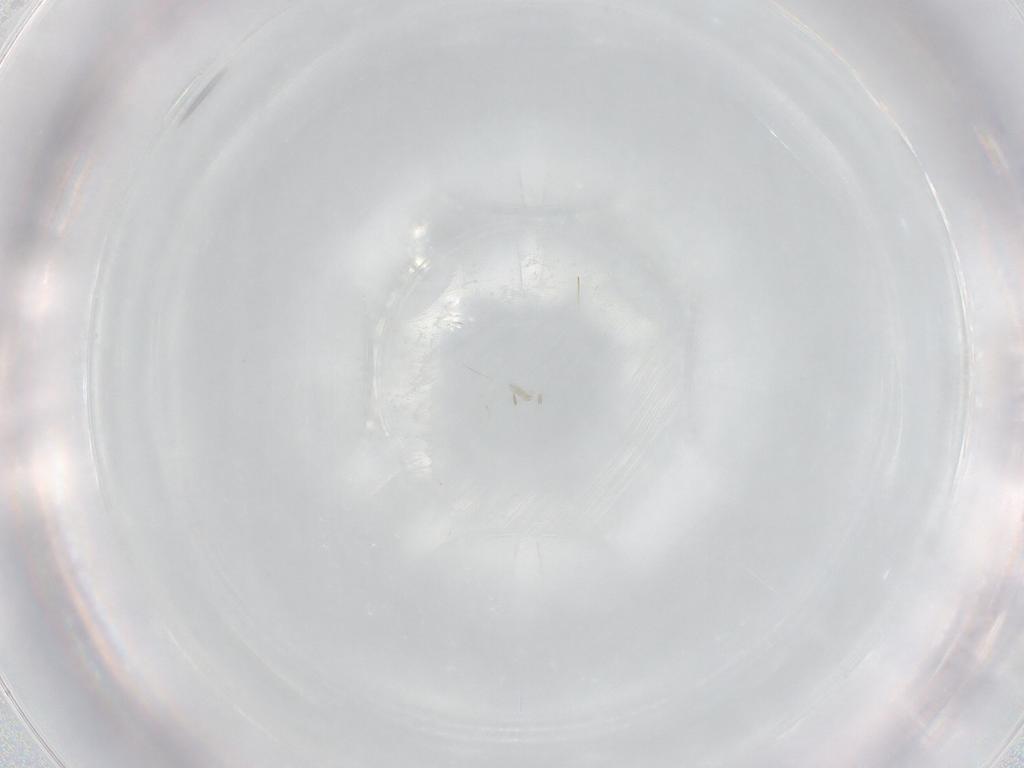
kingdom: Animalia
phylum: Arthropoda
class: Insecta
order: Lepidoptera
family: Geometridae
